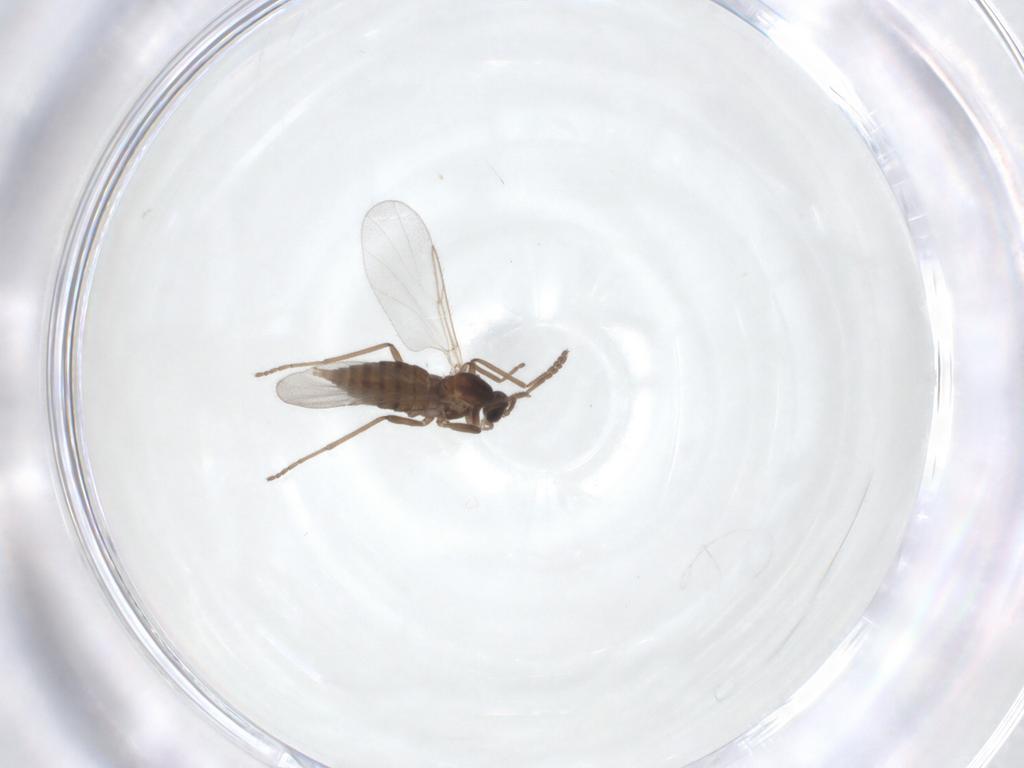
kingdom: Animalia
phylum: Arthropoda
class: Insecta
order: Diptera
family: Cecidomyiidae
